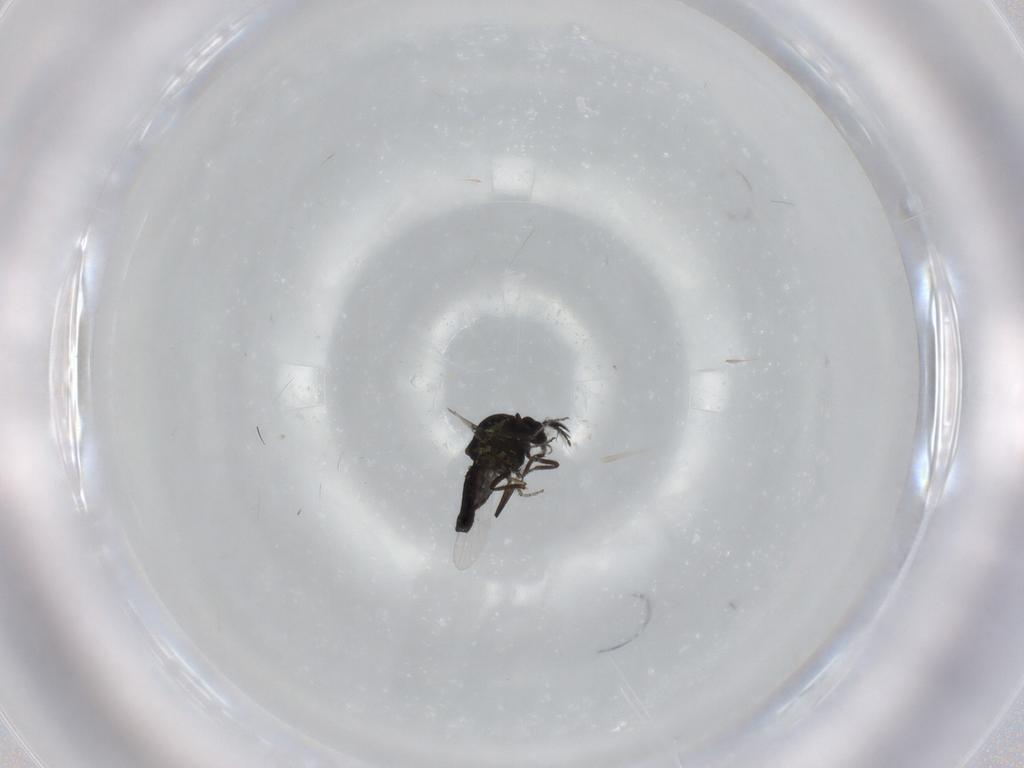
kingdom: Animalia
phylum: Arthropoda
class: Insecta
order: Diptera
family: Ceratopogonidae
